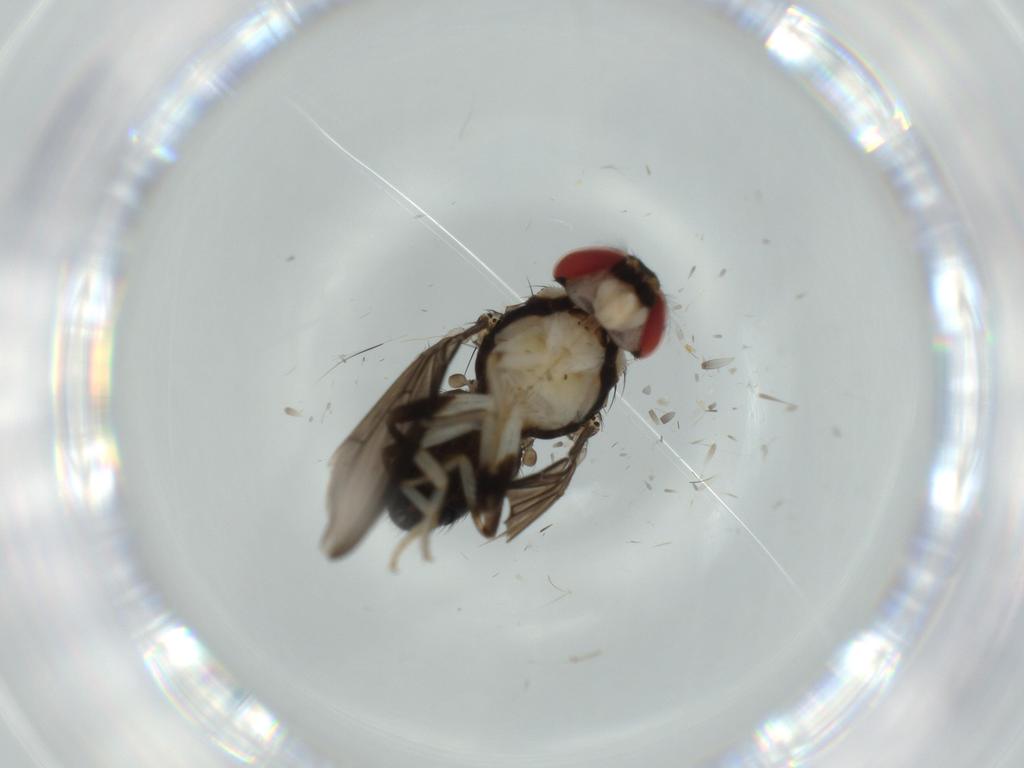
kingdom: Animalia
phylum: Arthropoda
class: Insecta
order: Diptera
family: Drosophilidae
